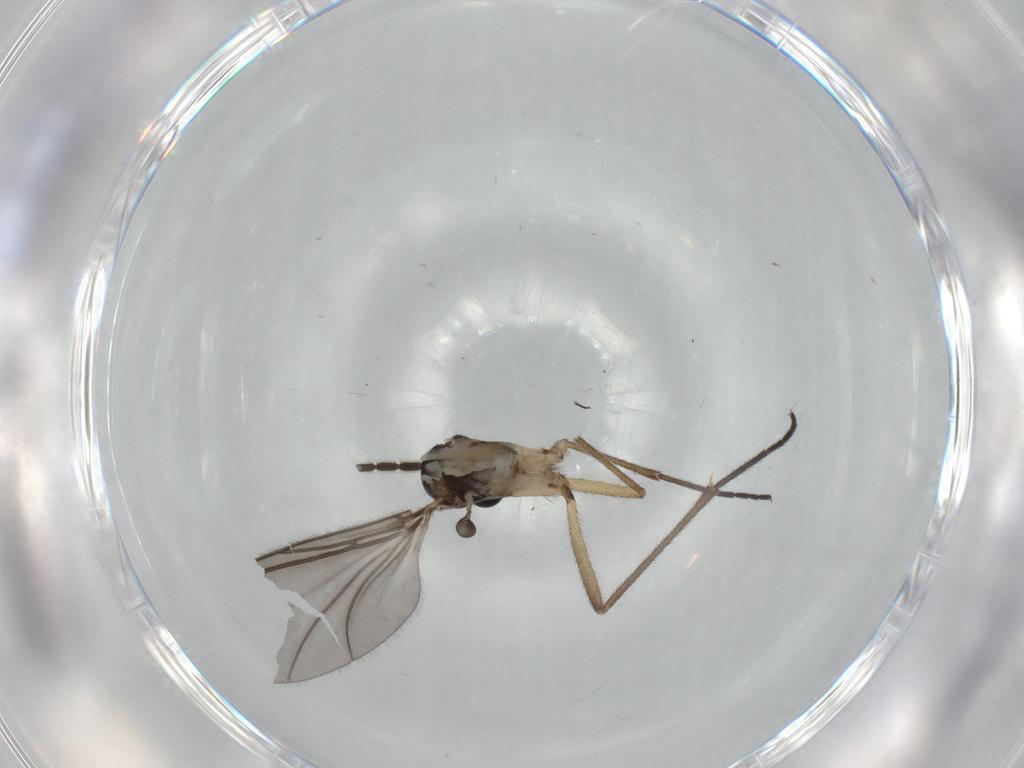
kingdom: Animalia
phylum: Arthropoda
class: Insecta
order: Diptera
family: Sciaridae
